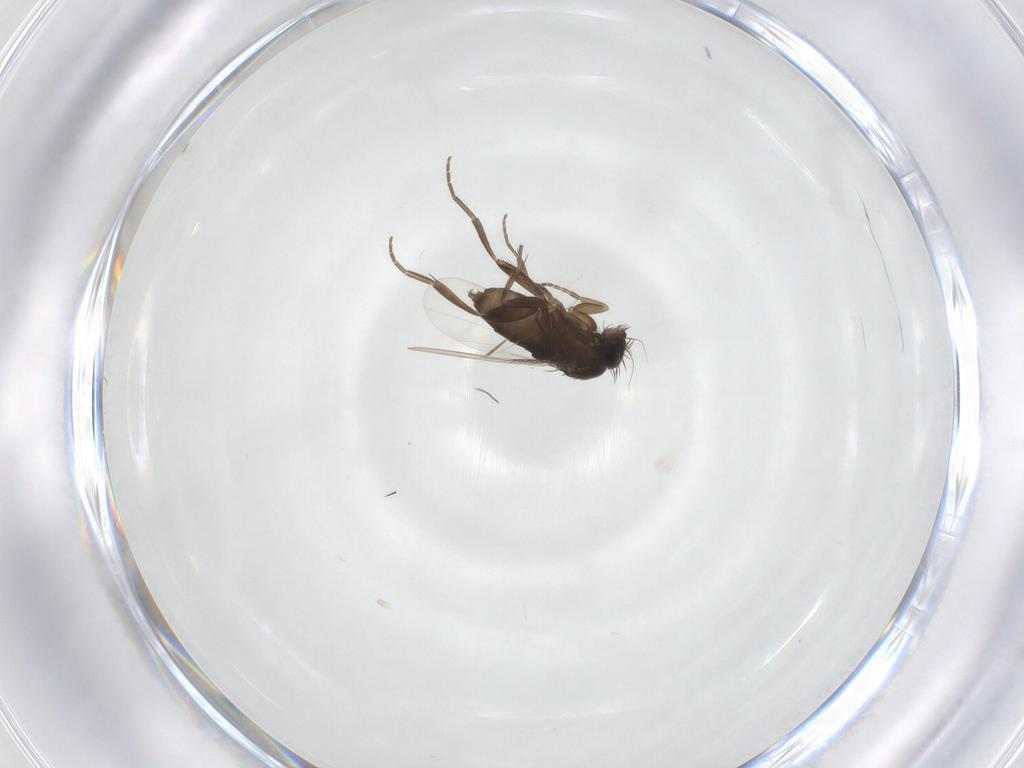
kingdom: Animalia
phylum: Arthropoda
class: Insecta
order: Diptera
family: Phoridae
